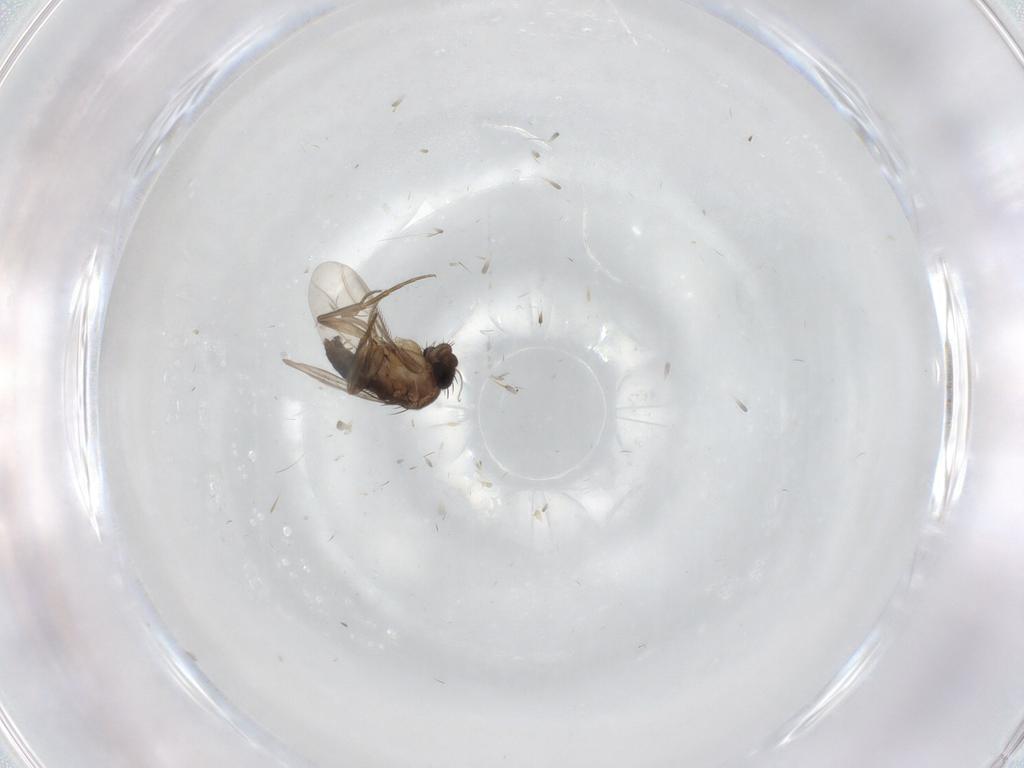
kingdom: Animalia
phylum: Arthropoda
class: Insecta
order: Diptera
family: Phoridae
